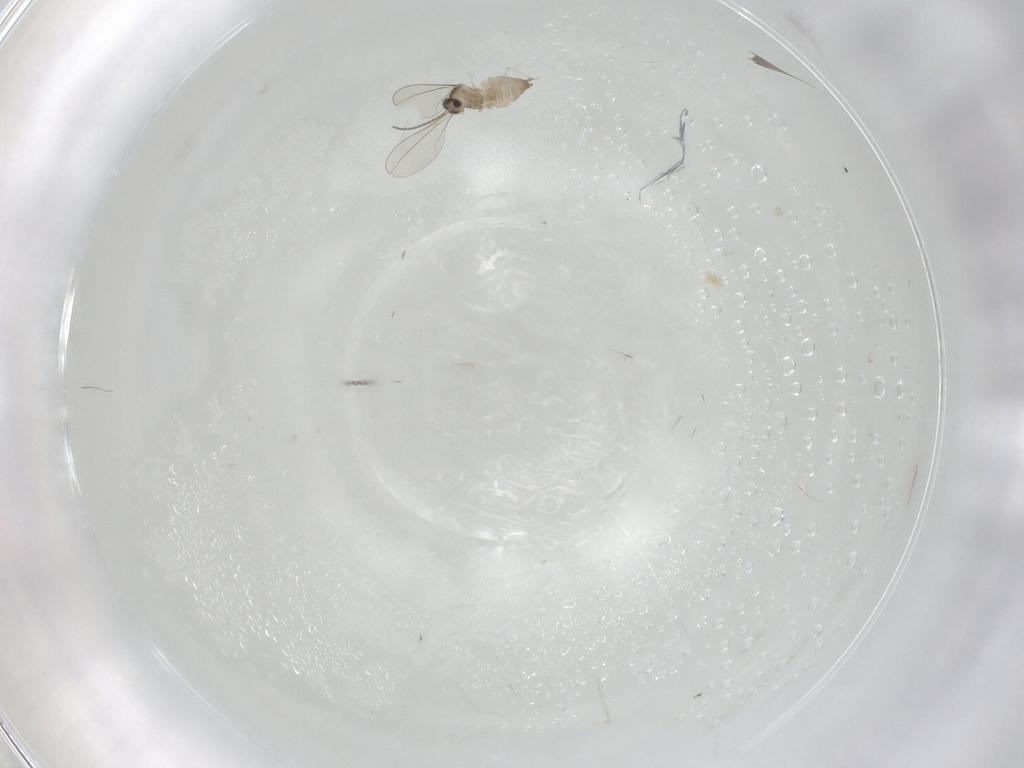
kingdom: Animalia
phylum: Arthropoda
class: Insecta
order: Diptera
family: Cecidomyiidae
